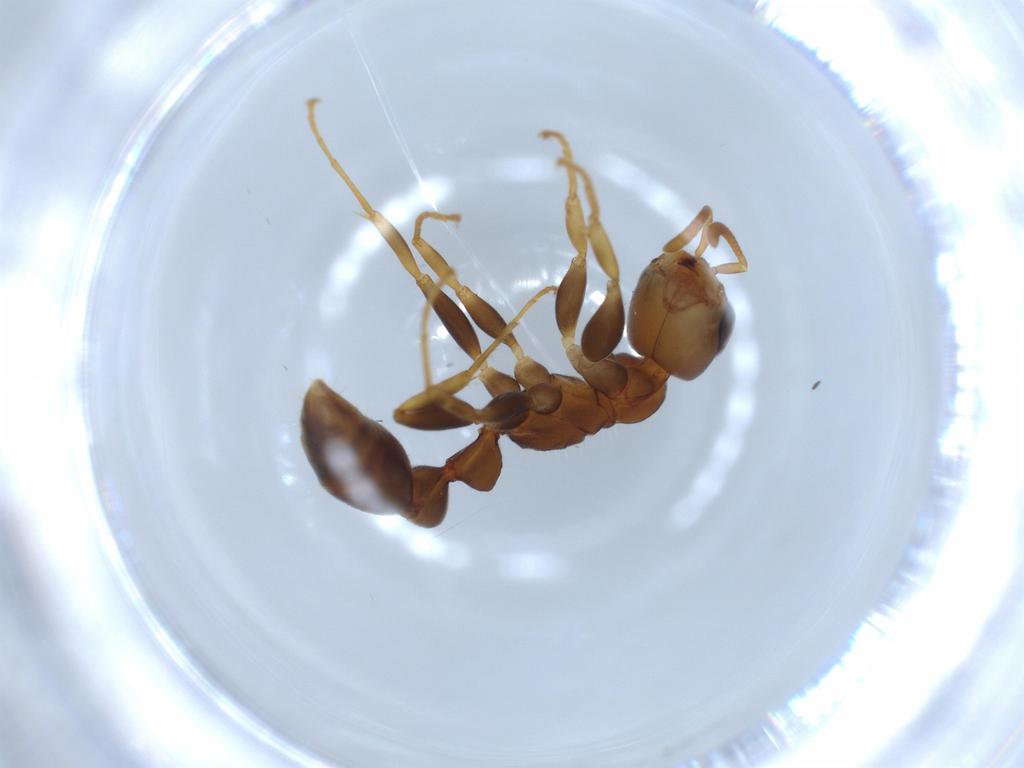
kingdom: Animalia
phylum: Arthropoda
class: Insecta
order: Hymenoptera
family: Formicidae
